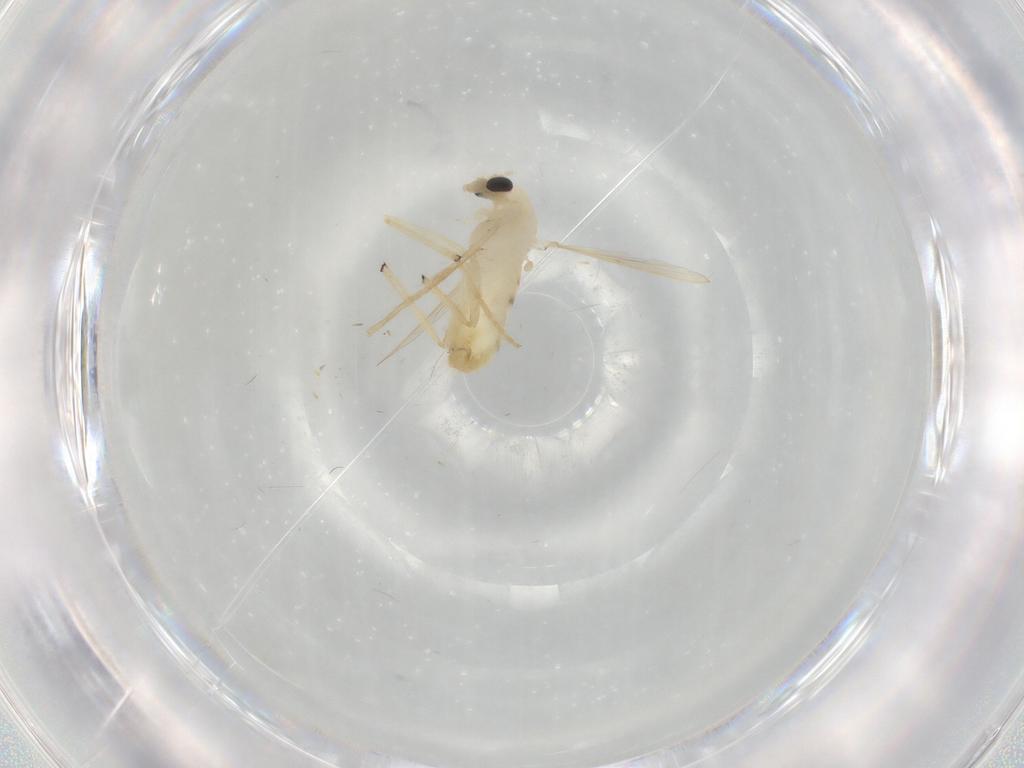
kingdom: Animalia
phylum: Arthropoda
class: Insecta
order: Diptera
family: Chironomidae
